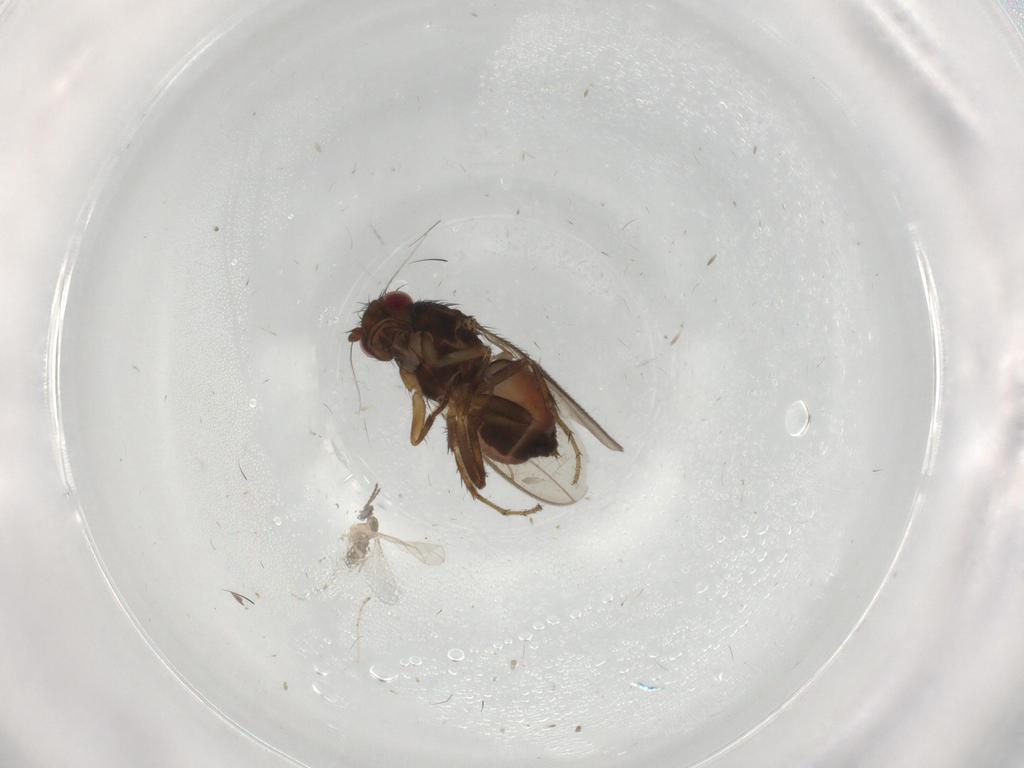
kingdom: Animalia
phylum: Arthropoda
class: Insecta
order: Diptera
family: Sphaeroceridae
